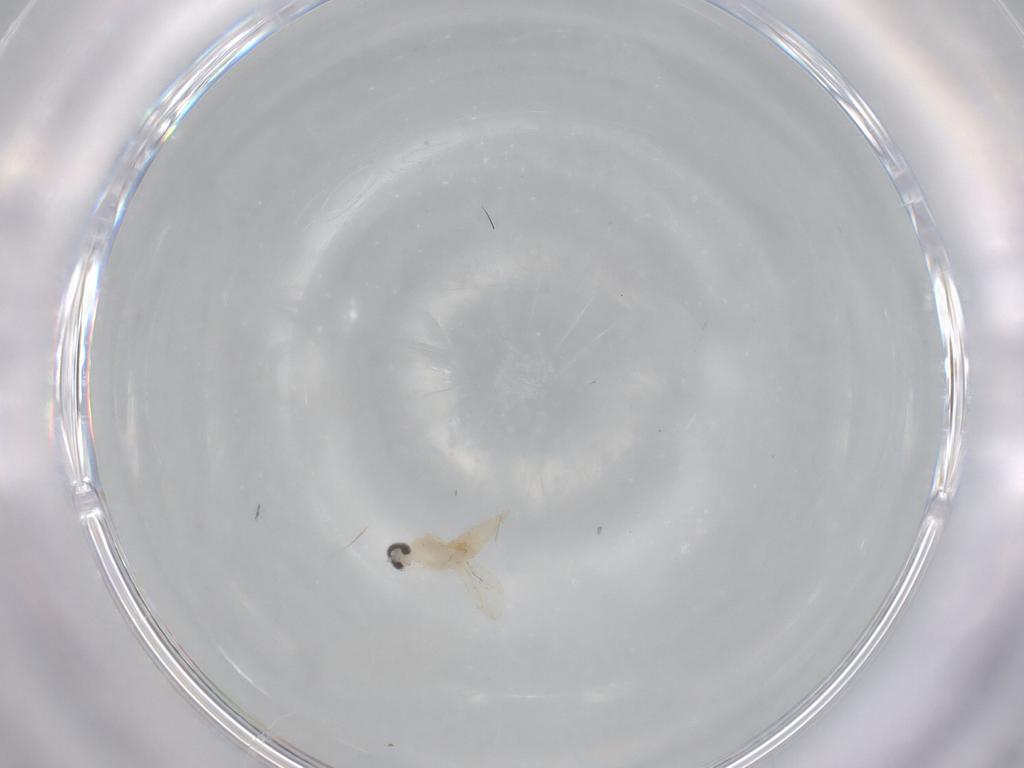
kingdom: Animalia
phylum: Arthropoda
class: Insecta
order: Diptera
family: Cecidomyiidae
